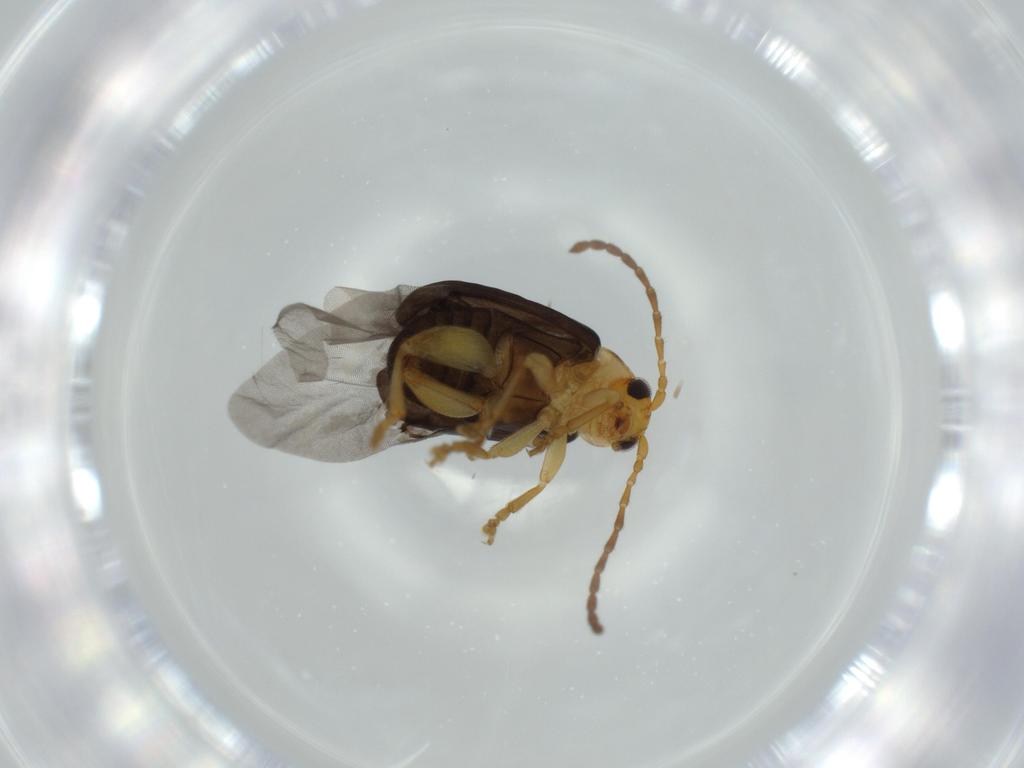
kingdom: Animalia
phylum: Arthropoda
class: Insecta
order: Coleoptera
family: Chrysomelidae
